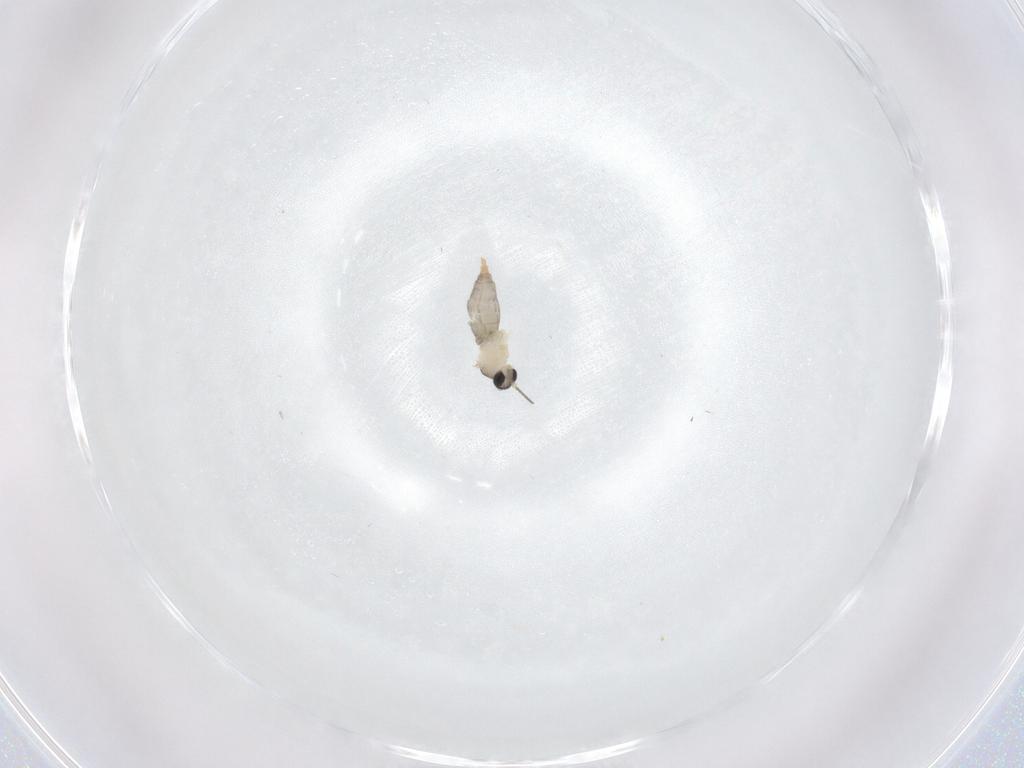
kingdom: Animalia
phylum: Arthropoda
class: Insecta
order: Diptera
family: Cecidomyiidae
